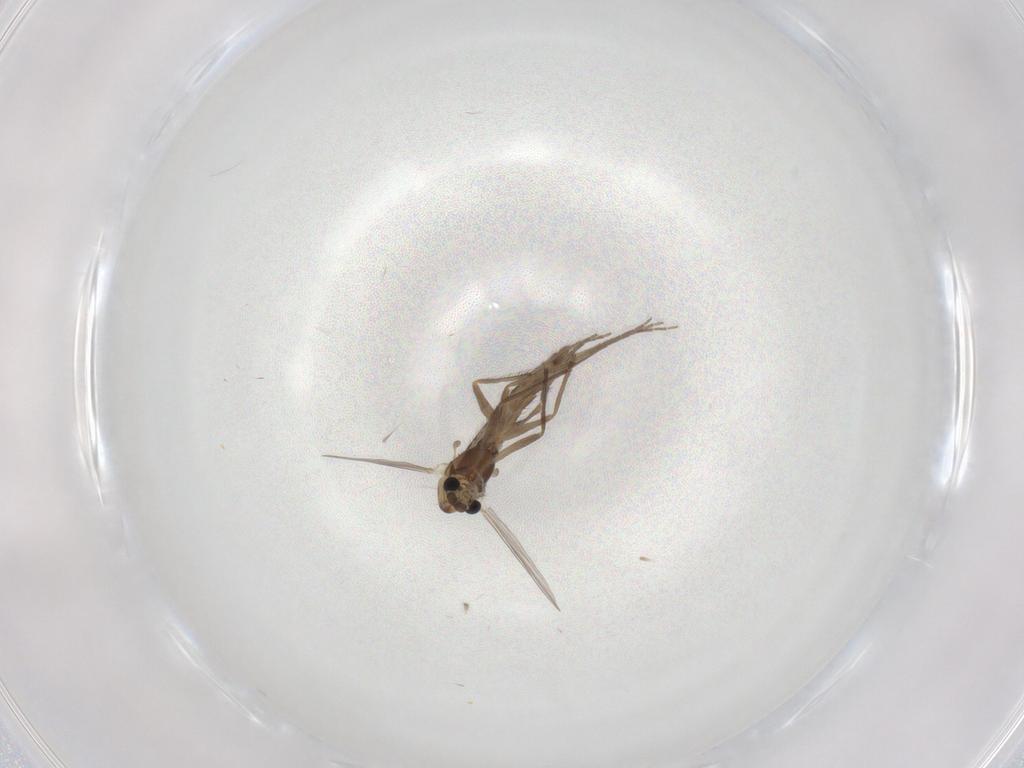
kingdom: Animalia
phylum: Arthropoda
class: Insecta
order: Diptera
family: Chironomidae
